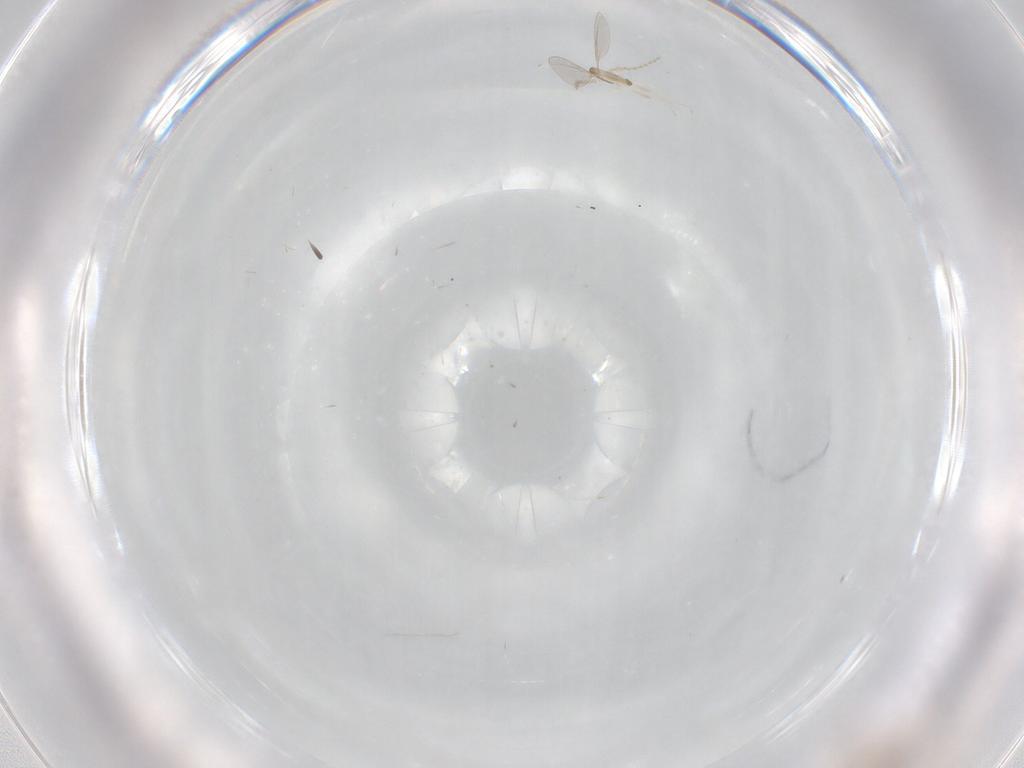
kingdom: Animalia
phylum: Arthropoda
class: Insecta
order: Diptera
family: Cecidomyiidae
